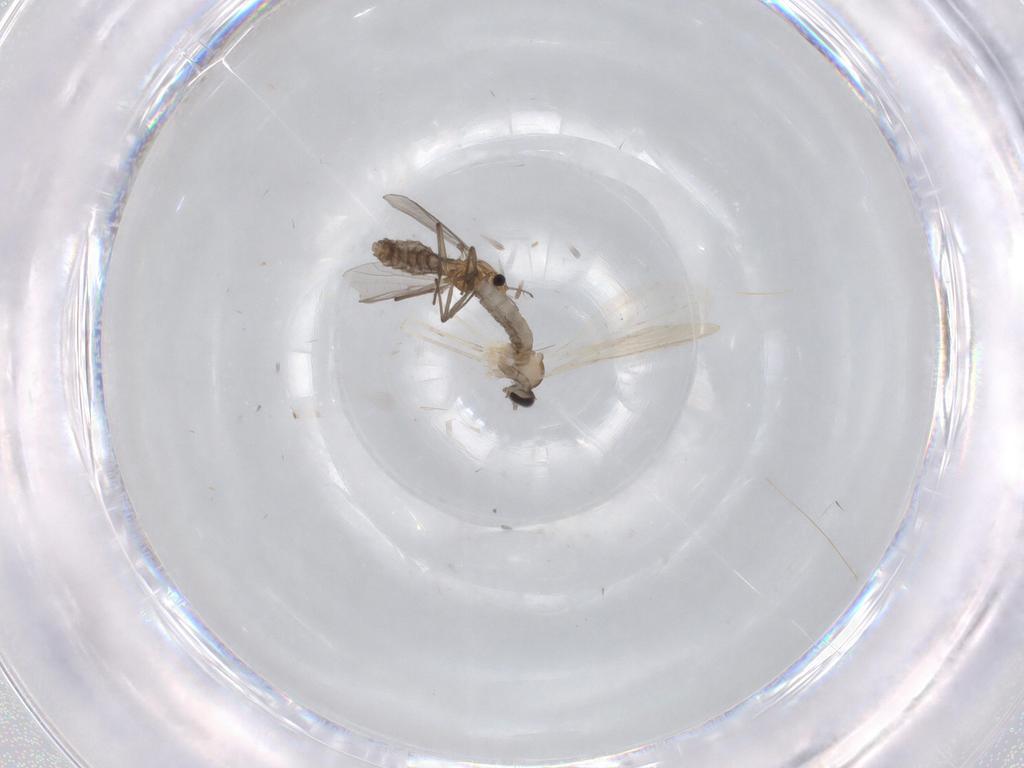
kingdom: Animalia
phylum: Arthropoda
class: Insecta
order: Diptera
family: Cecidomyiidae
